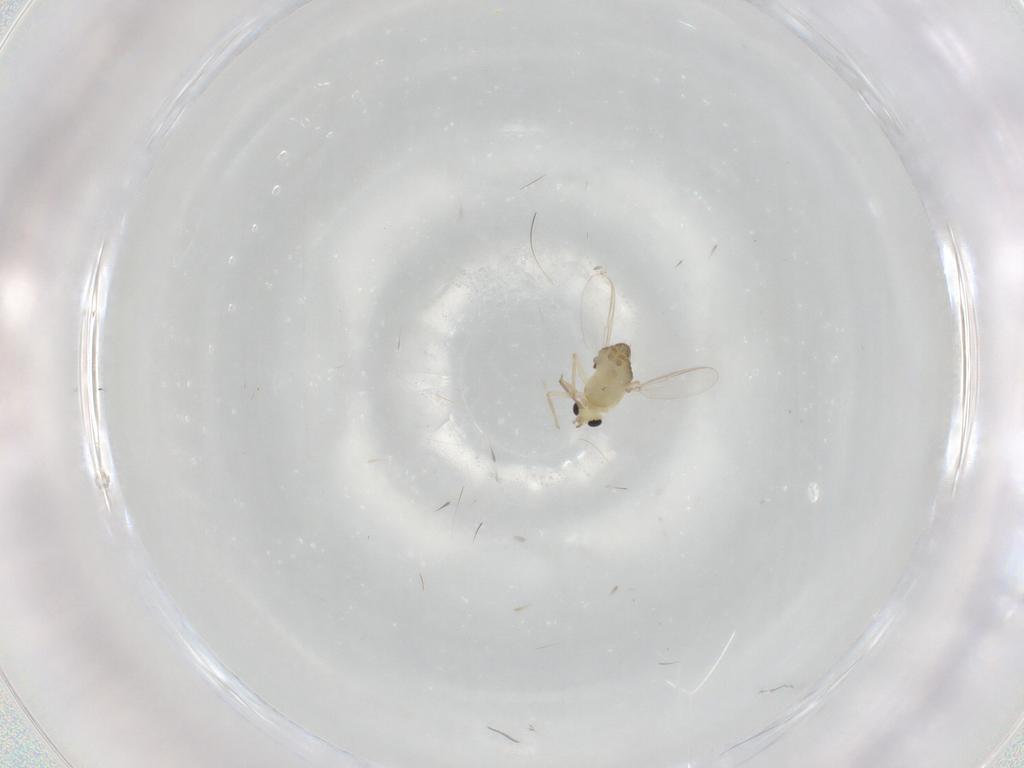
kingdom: Animalia
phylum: Arthropoda
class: Insecta
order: Diptera
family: Chironomidae
